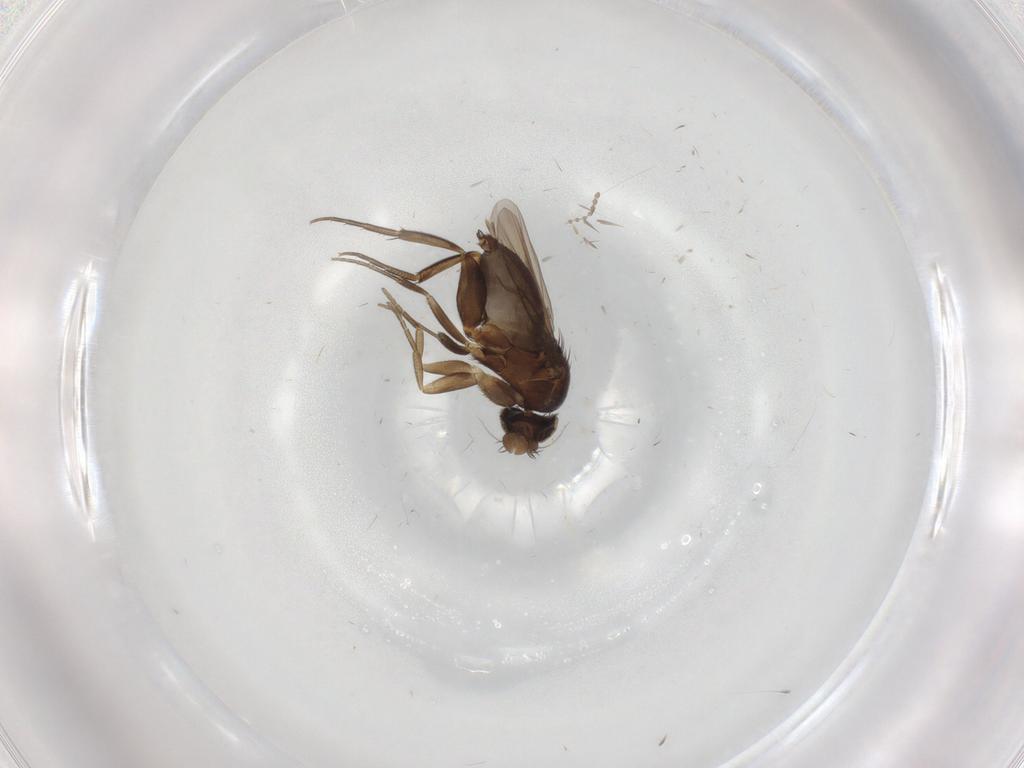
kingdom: Animalia
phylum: Arthropoda
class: Insecta
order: Diptera
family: Phoridae
